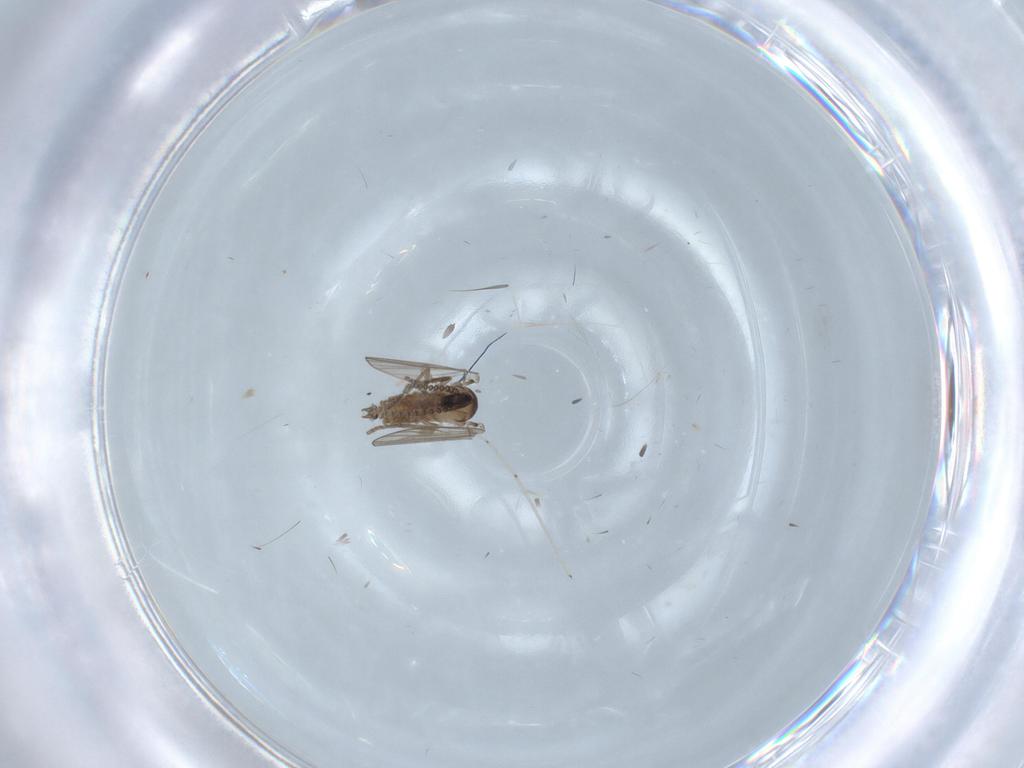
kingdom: Animalia
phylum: Arthropoda
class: Insecta
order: Diptera
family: Psychodidae
